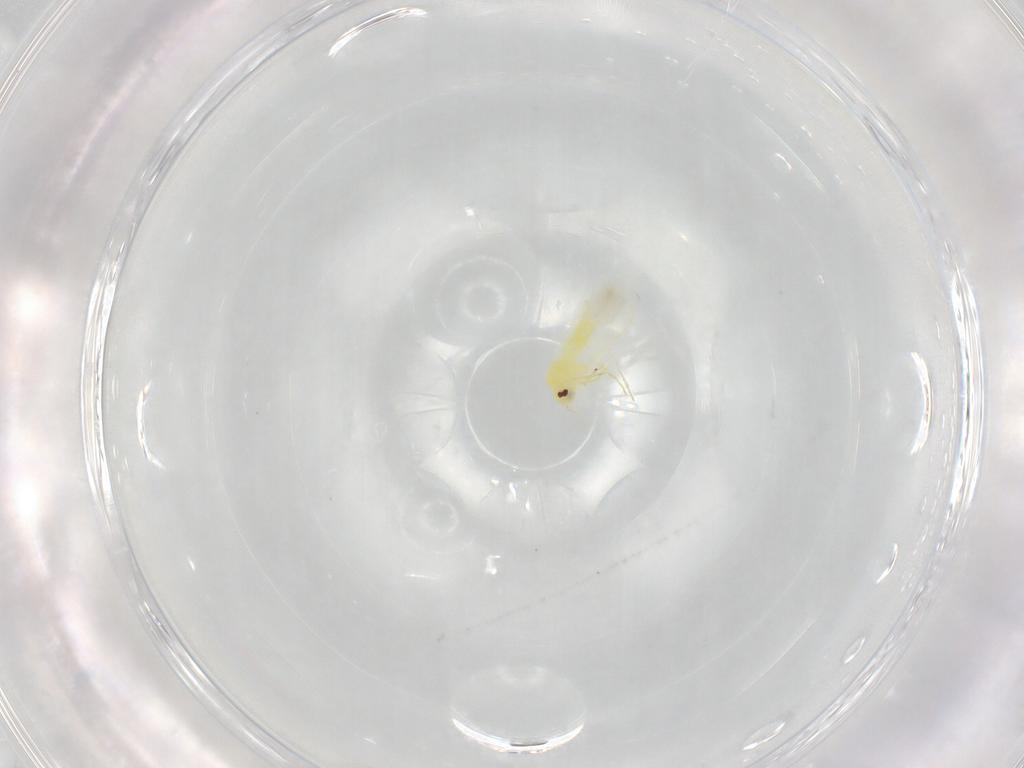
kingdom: Animalia
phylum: Arthropoda
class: Insecta
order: Hemiptera
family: Aleyrodidae
